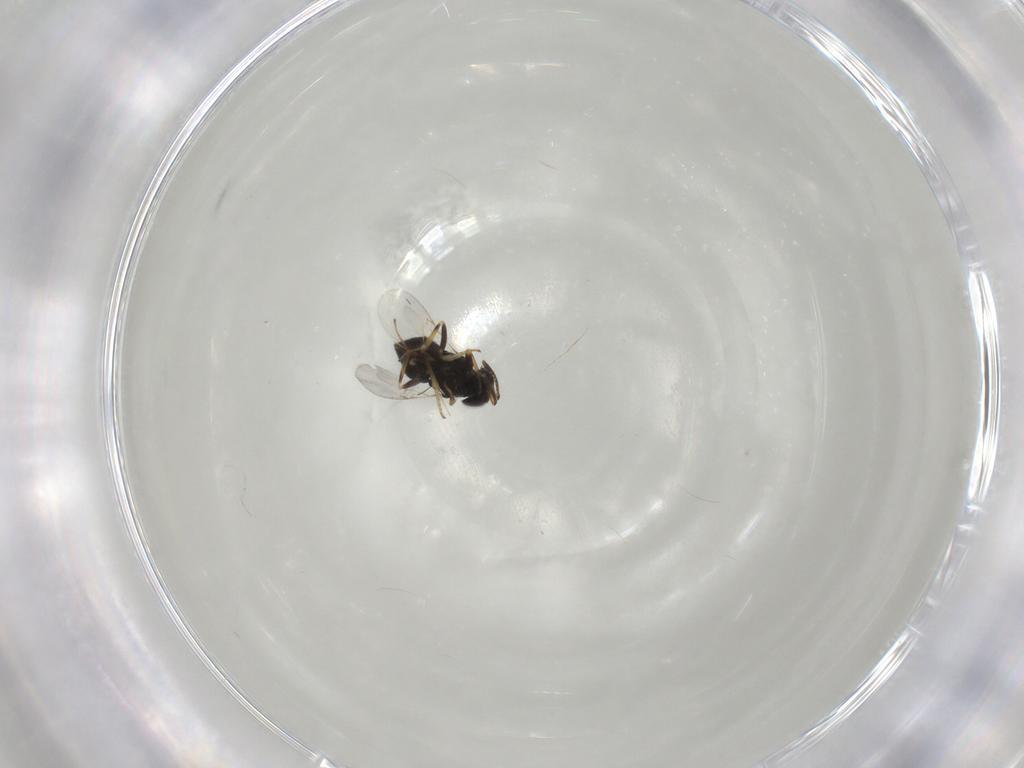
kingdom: Animalia
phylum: Arthropoda
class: Insecta
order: Hymenoptera
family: Encyrtidae
